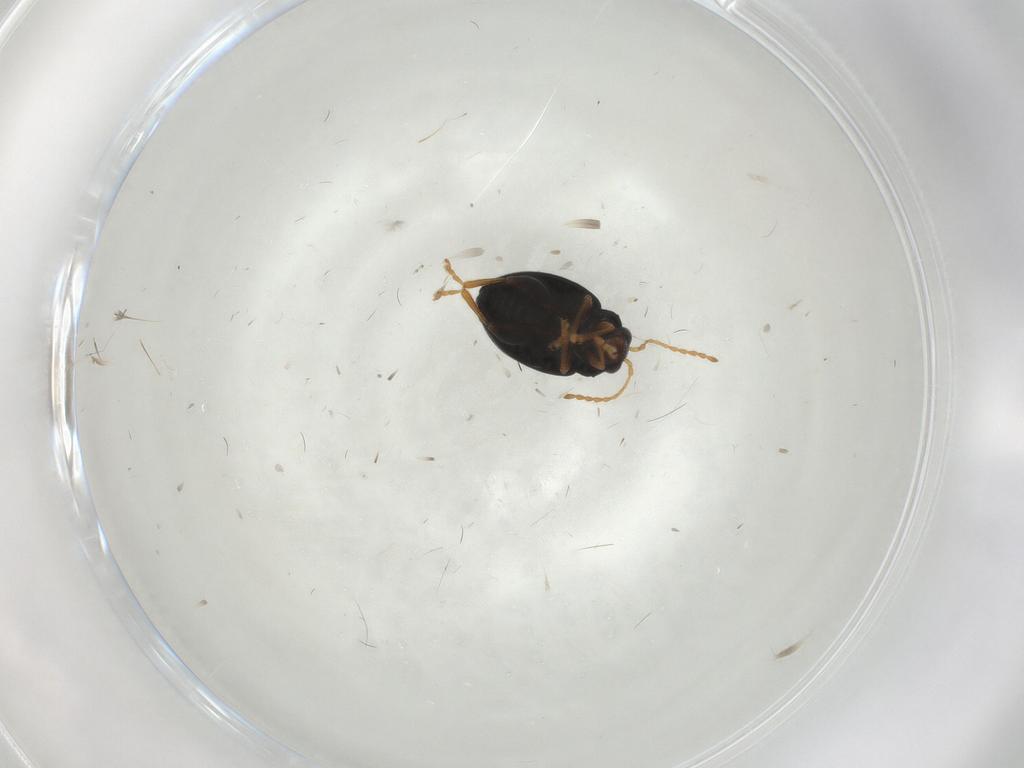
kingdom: Animalia
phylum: Arthropoda
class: Insecta
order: Coleoptera
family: Chrysomelidae
